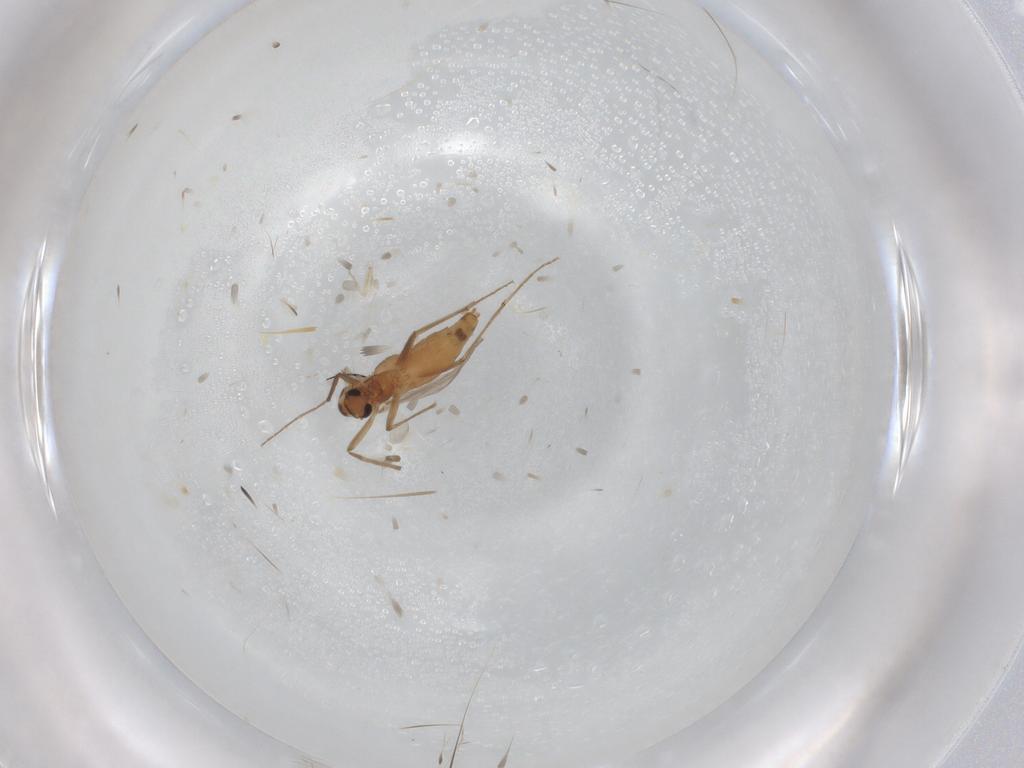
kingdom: Animalia
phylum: Arthropoda
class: Insecta
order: Diptera
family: Chironomidae
